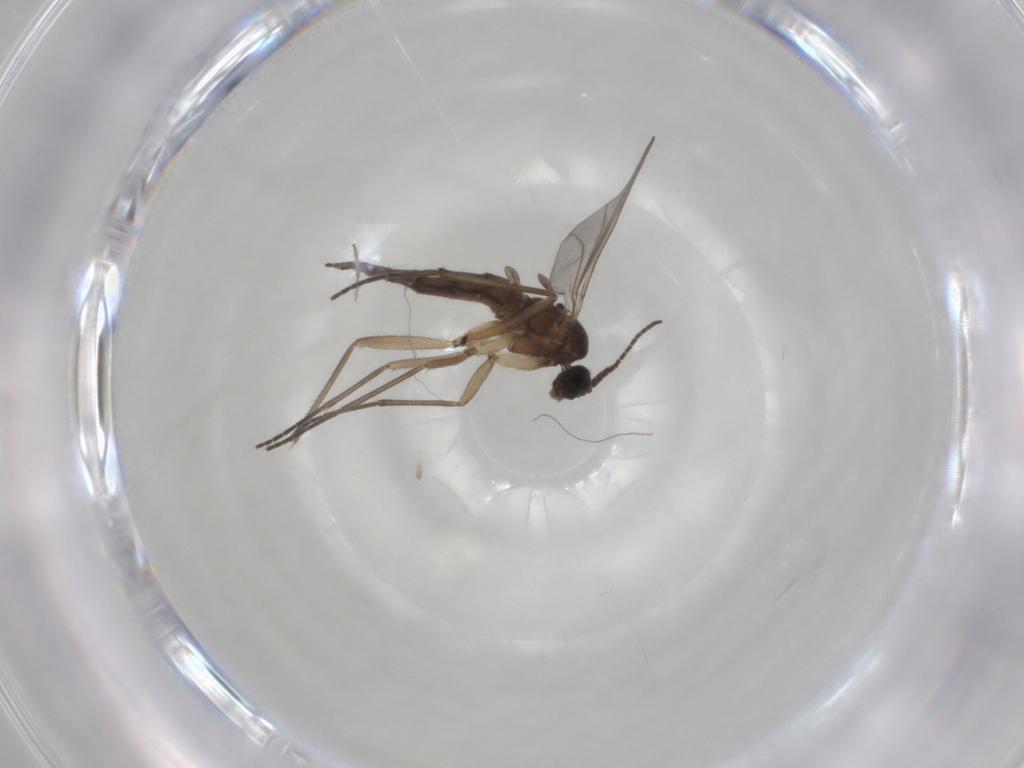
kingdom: Animalia
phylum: Arthropoda
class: Insecta
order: Diptera
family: Sciaridae
